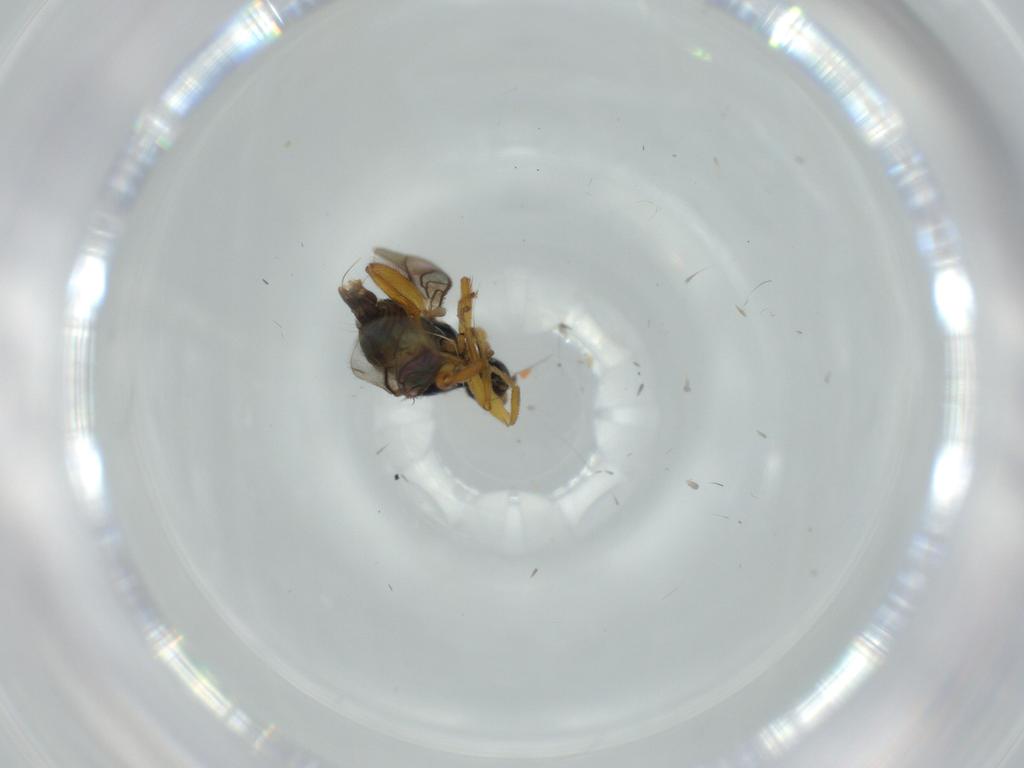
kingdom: Animalia
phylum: Arthropoda
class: Insecta
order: Diptera
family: Hybotidae
